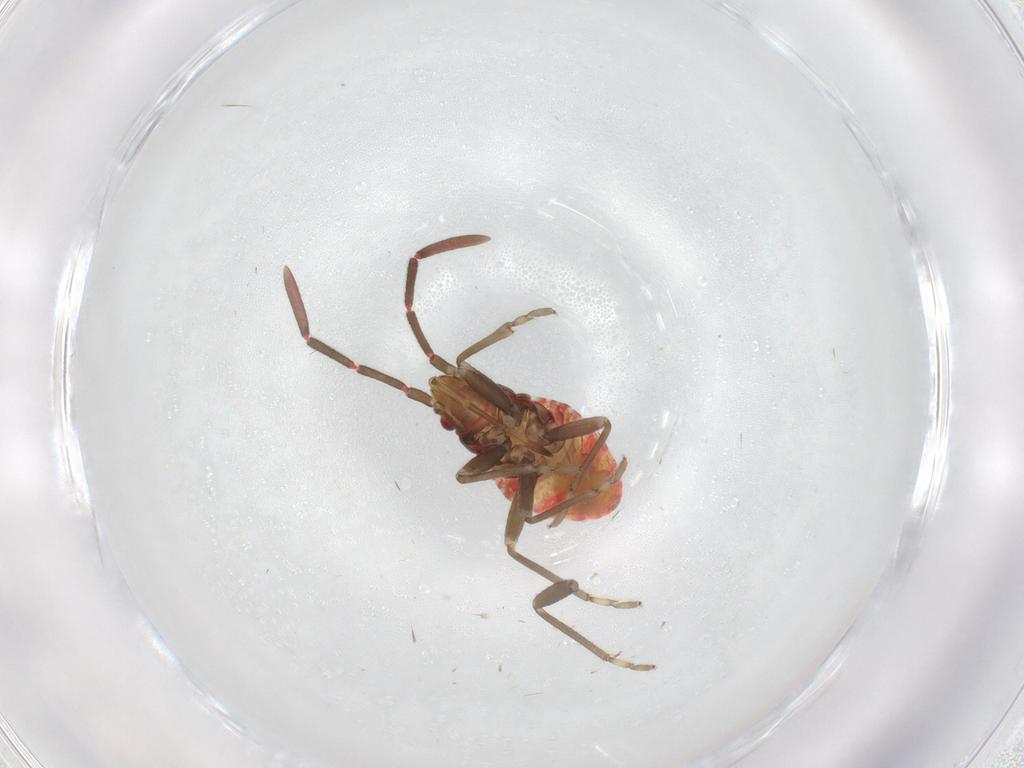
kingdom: Animalia
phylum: Arthropoda
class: Insecta
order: Hemiptera
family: Rhyparochromidae
